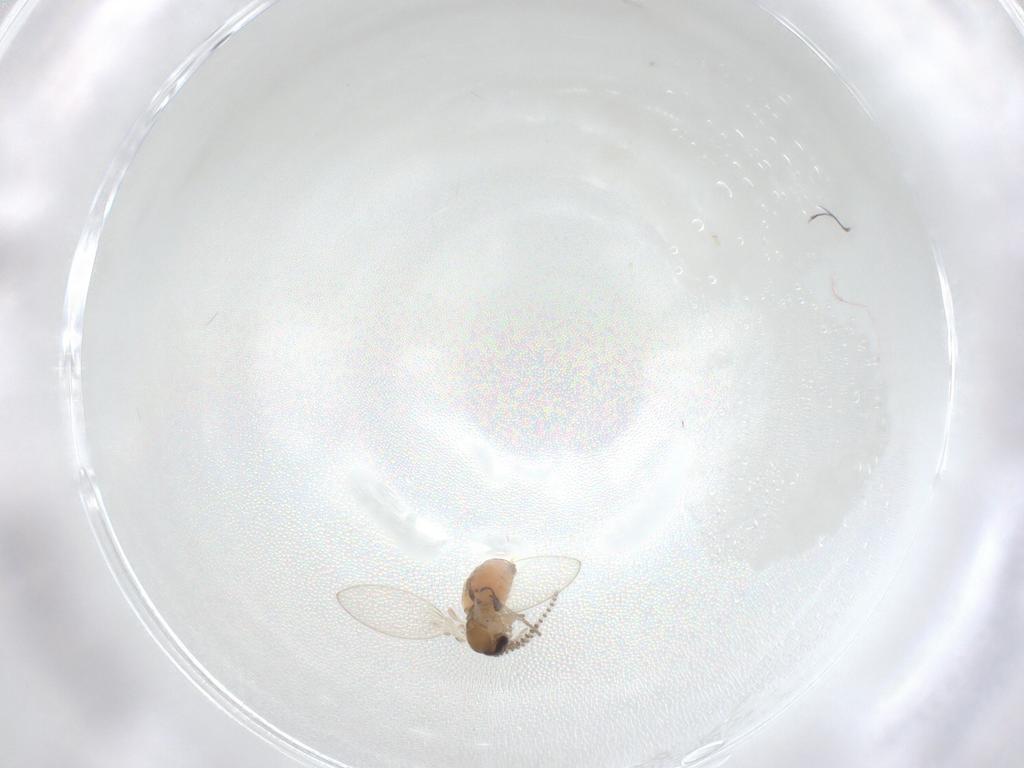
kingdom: Animalia
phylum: Arthropoda
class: Insecta
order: Diptera
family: Psychodidae
